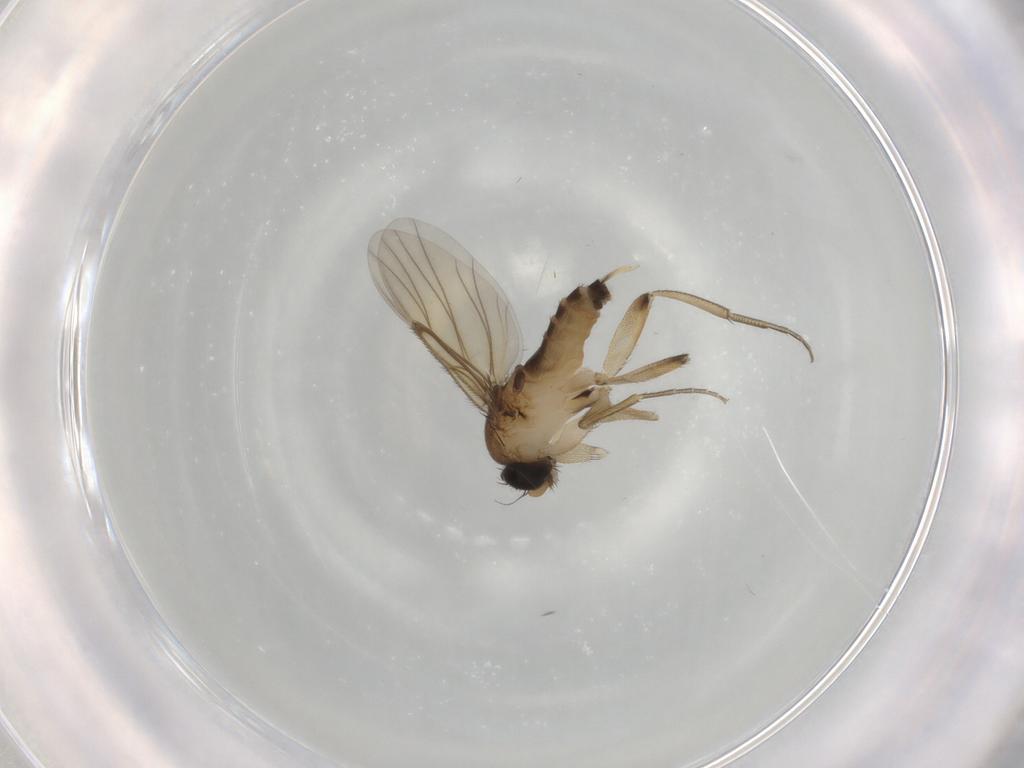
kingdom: Animalia
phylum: Arthropoda
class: Insecta
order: Diptera
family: Phoridae
